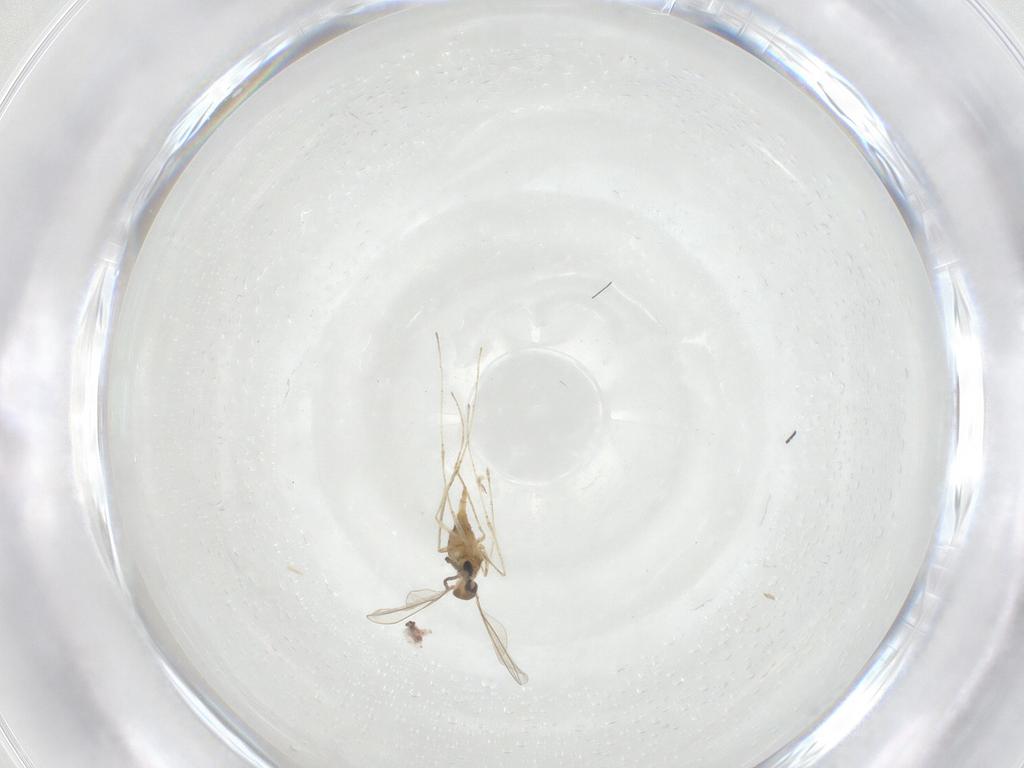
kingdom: Animalia
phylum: Arthropoda
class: Insecta
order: Diptera
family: Cecidomyiidae
